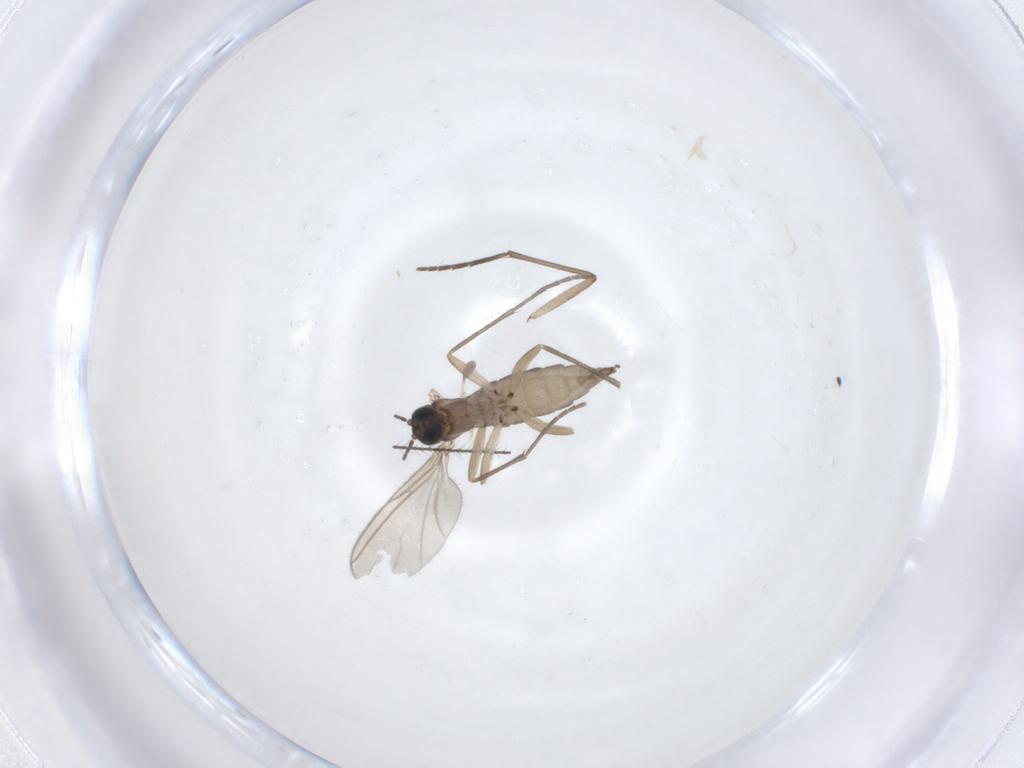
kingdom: Animalia
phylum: Arthropoda
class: Insecta
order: Diptera
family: Sciaridae
